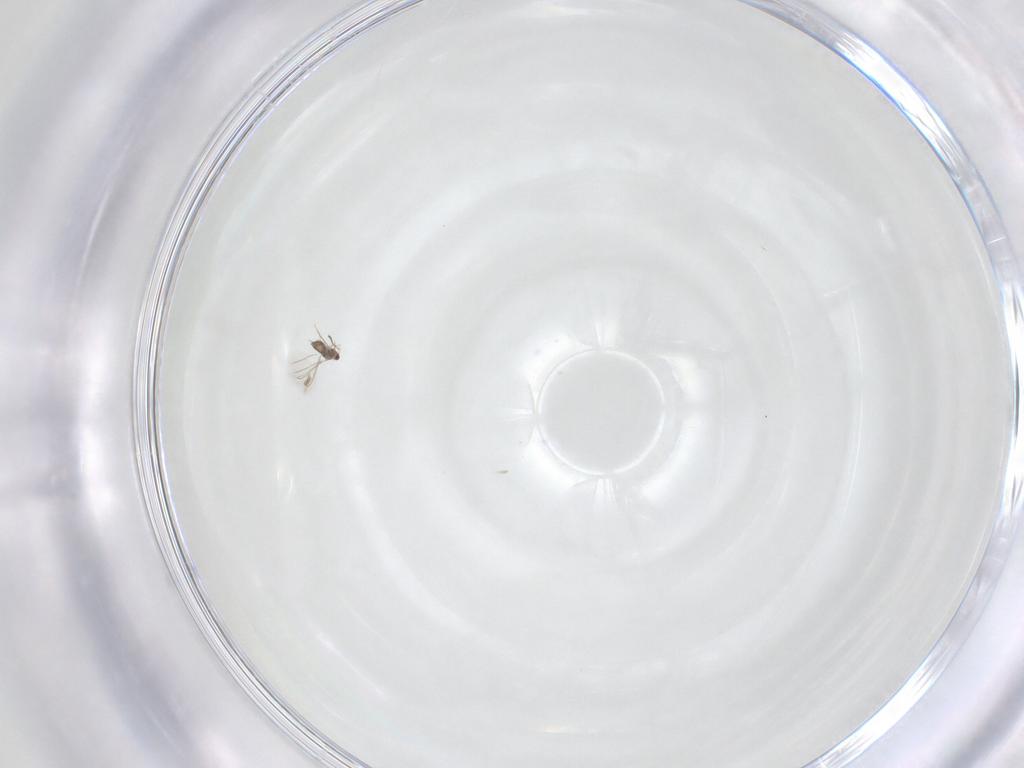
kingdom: Animalia
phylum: Arthropoda
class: Insecta
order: Hymenoptera
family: Mymaridae
